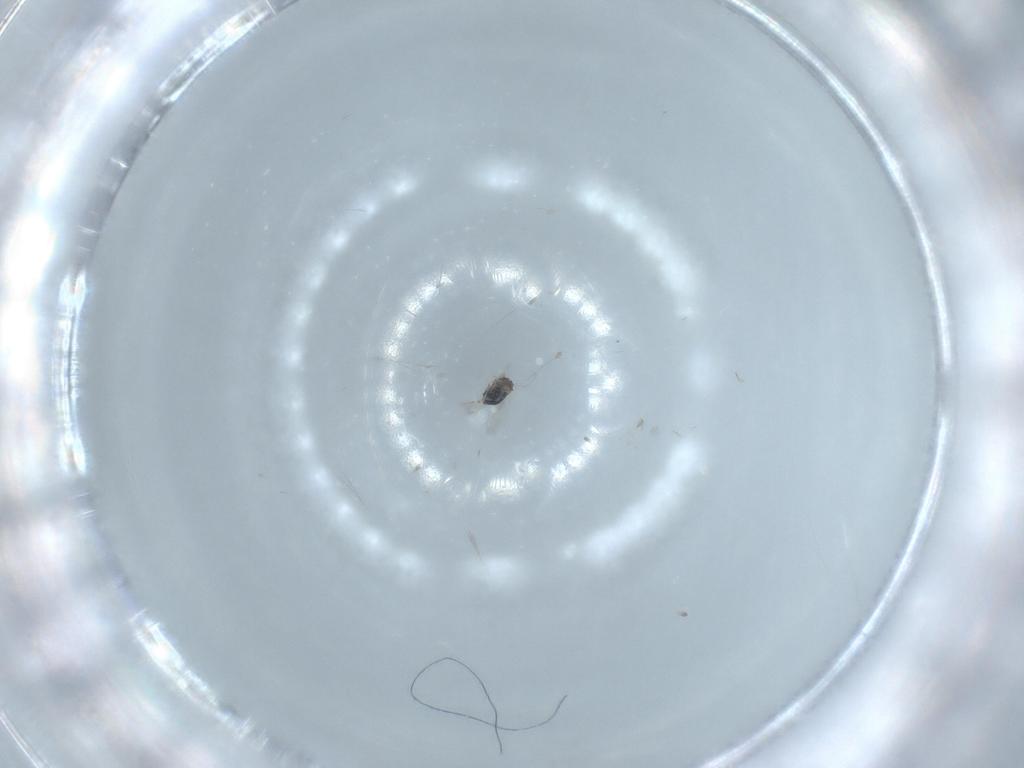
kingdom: Animalia
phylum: Arthropoda
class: Insecta
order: Hymenoptera
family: Signiphoridae
